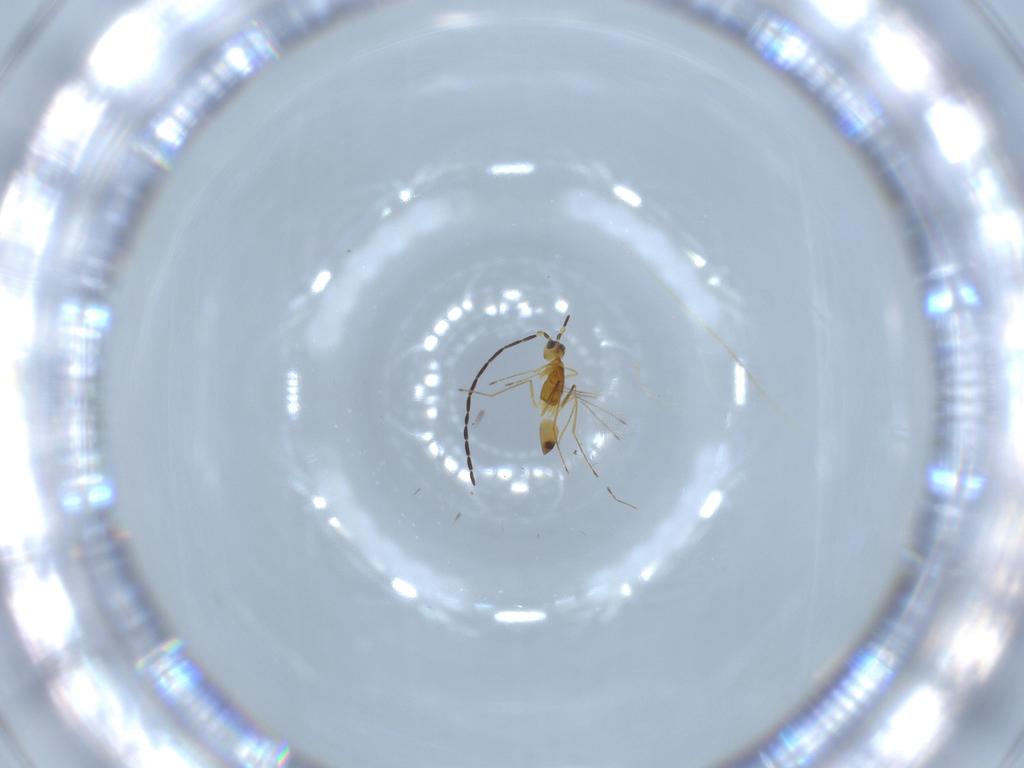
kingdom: Animalia
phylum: Arthropoda
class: Insecta
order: Hymenoptera
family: Mymaridae
